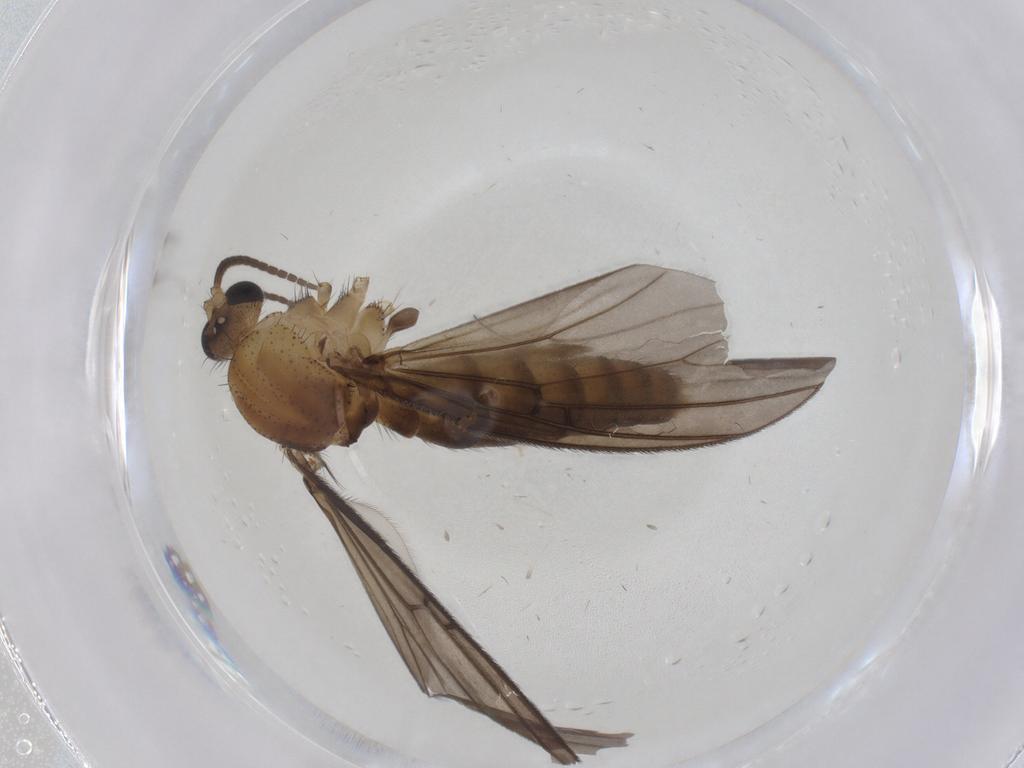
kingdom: Animalia
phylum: Arthropoda
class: Insecta
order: Diptera
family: Mycetophilidae
